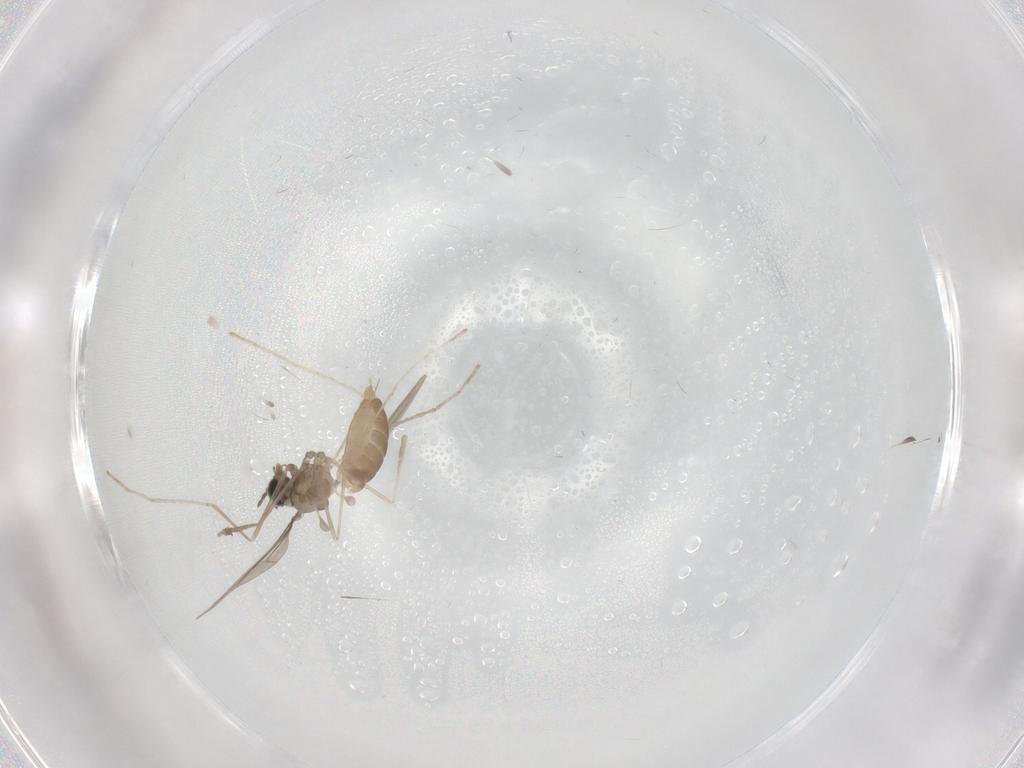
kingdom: Animalia
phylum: Arthropoda
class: Insecta
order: Diptera
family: Cecidomyiidae
